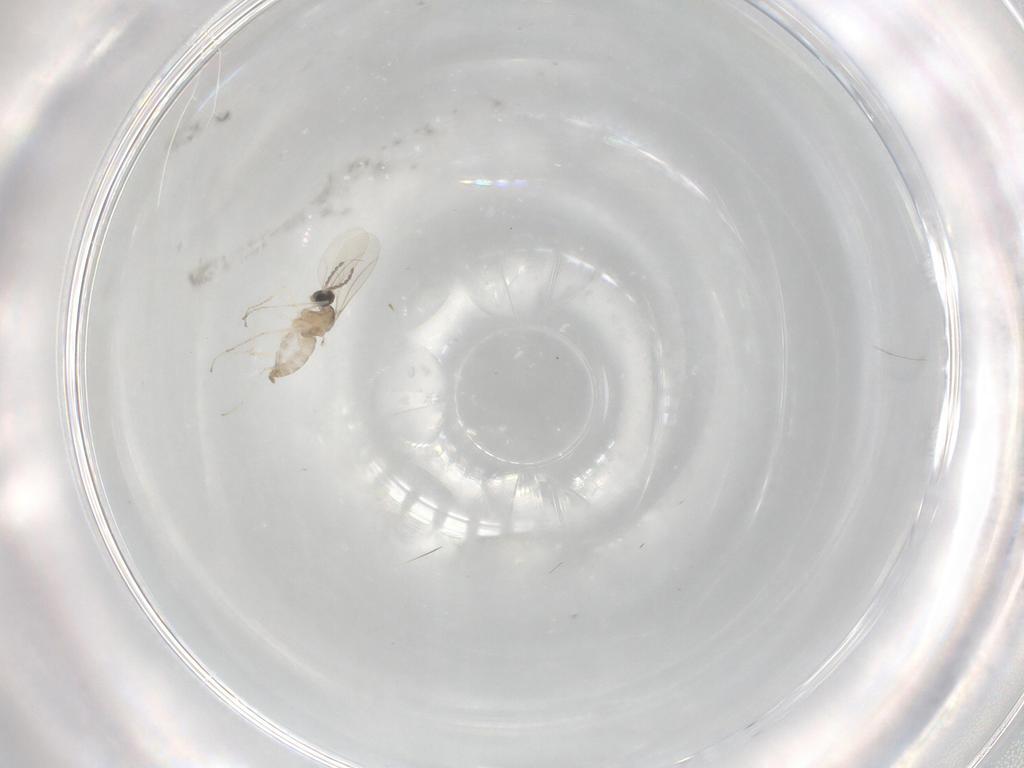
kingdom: Animalia
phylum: Arthropoda
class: Insecta
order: Diptera
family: Cecidomyiidae
